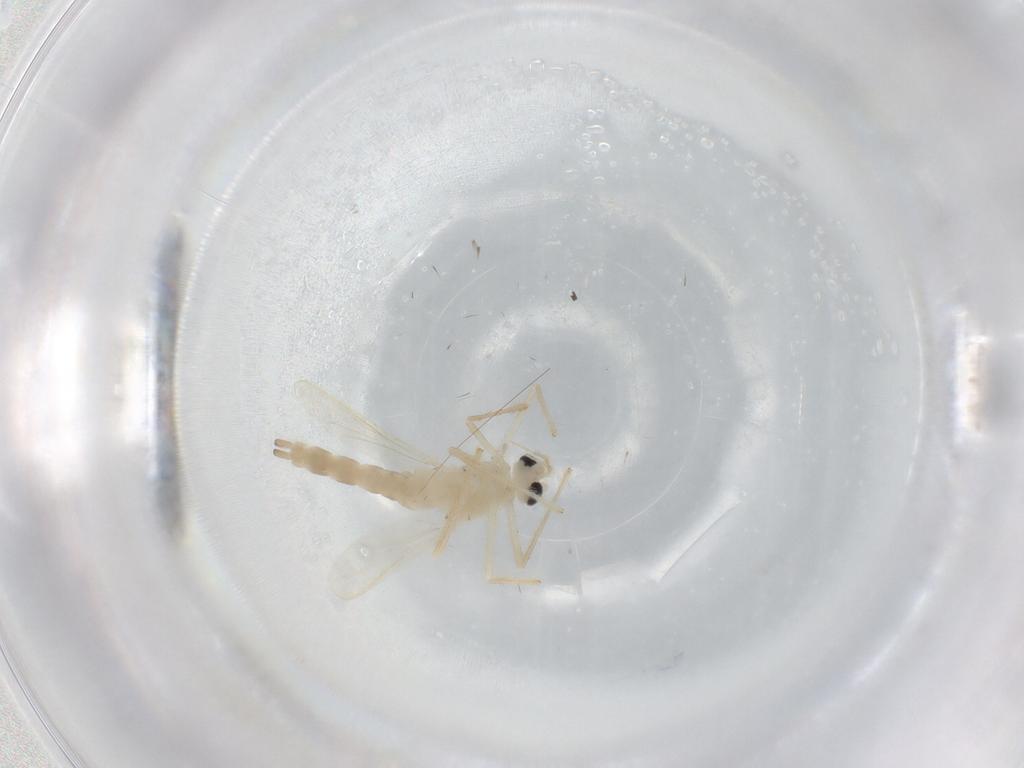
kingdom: Animalia
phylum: Arthropoda
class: Insecta
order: Diptera
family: Chironomidae
